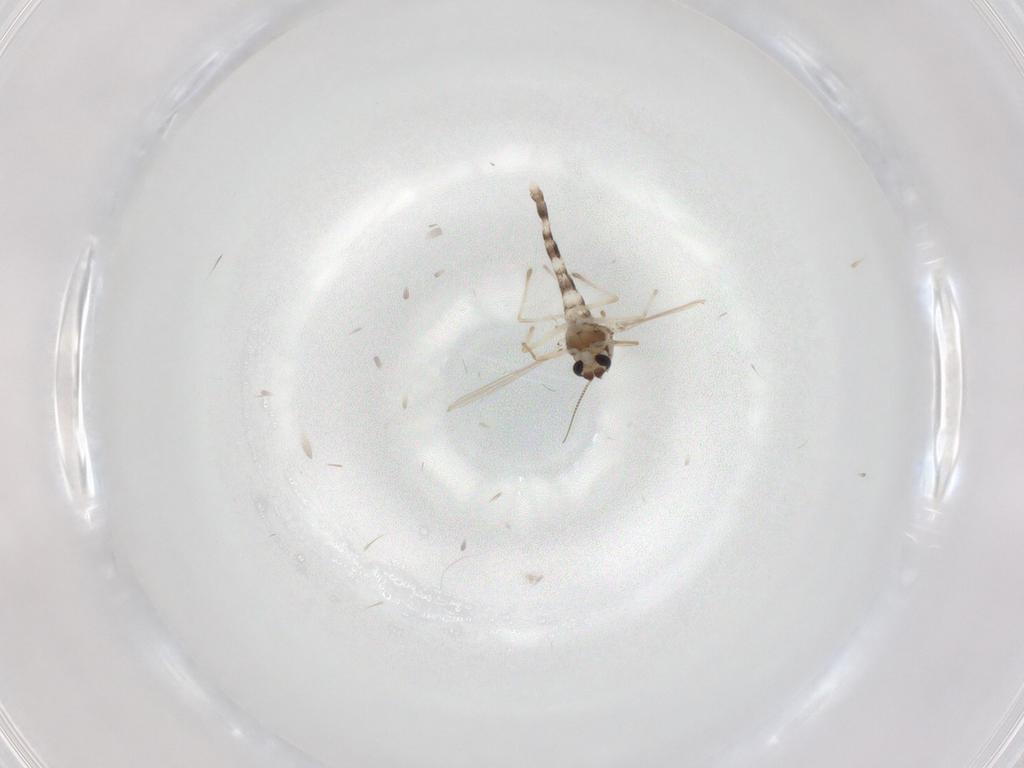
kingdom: Animalia
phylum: Arthropoda
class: Insecta
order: Diptera
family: Chironomidae
